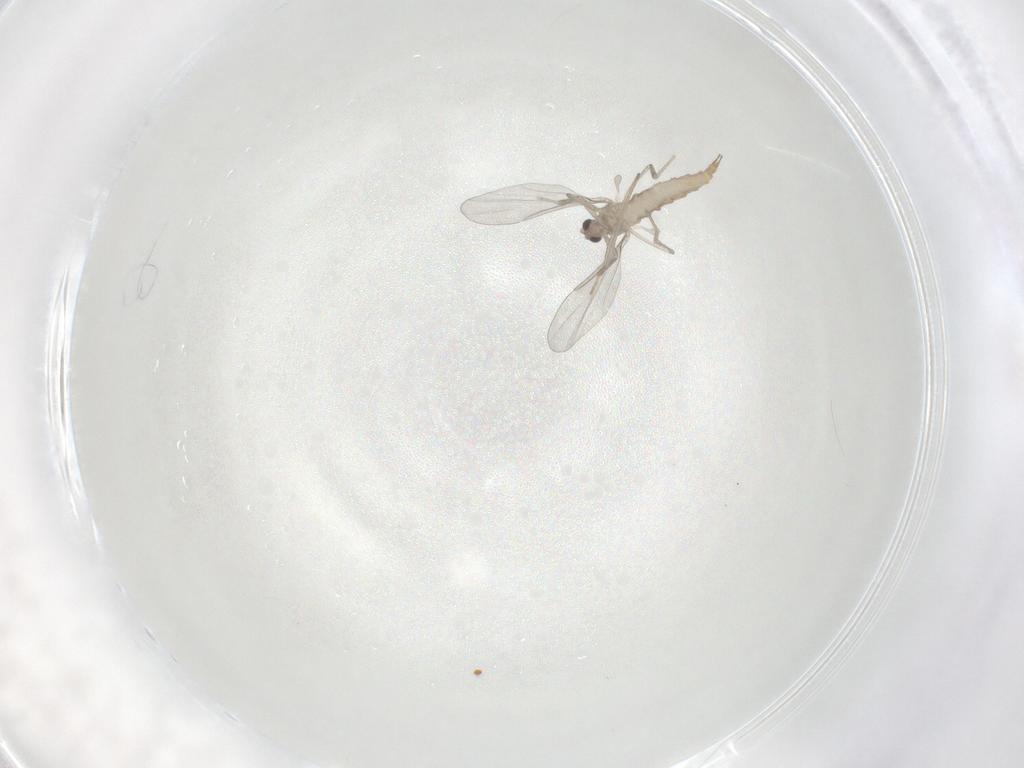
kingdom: Animalia
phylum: Arthropoda
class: Insecta
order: Diptera
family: Cecidomyiidae
